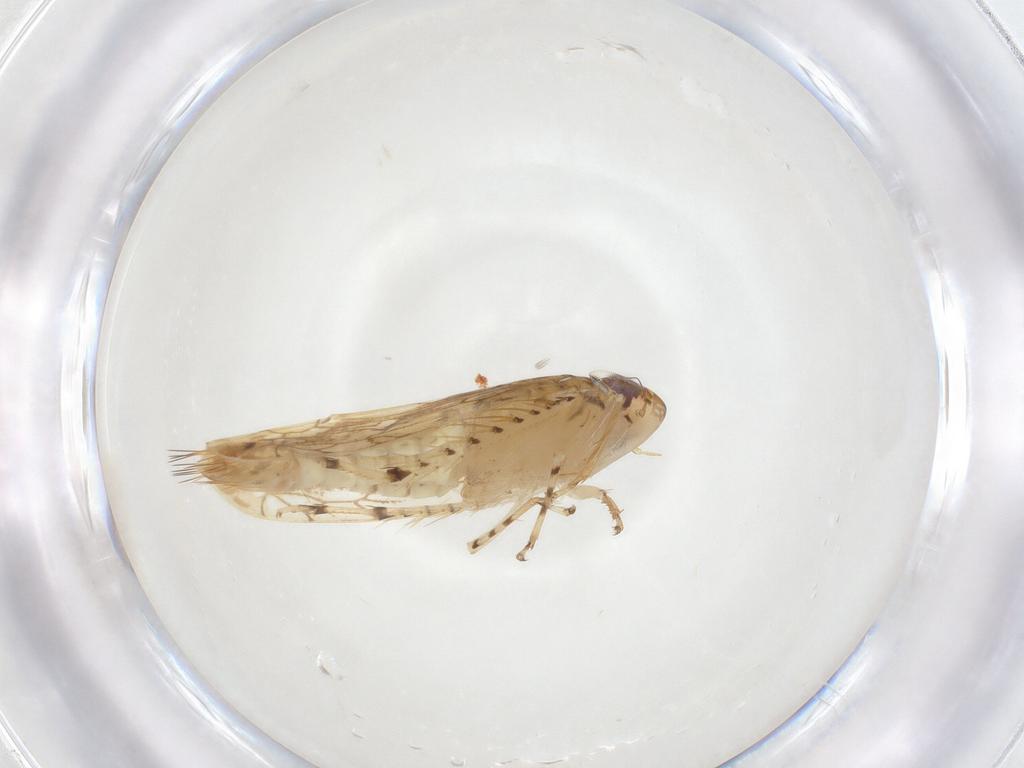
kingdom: Animalia
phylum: Arthropoda
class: Insecta
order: Hemiptera
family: Cicadellidae
